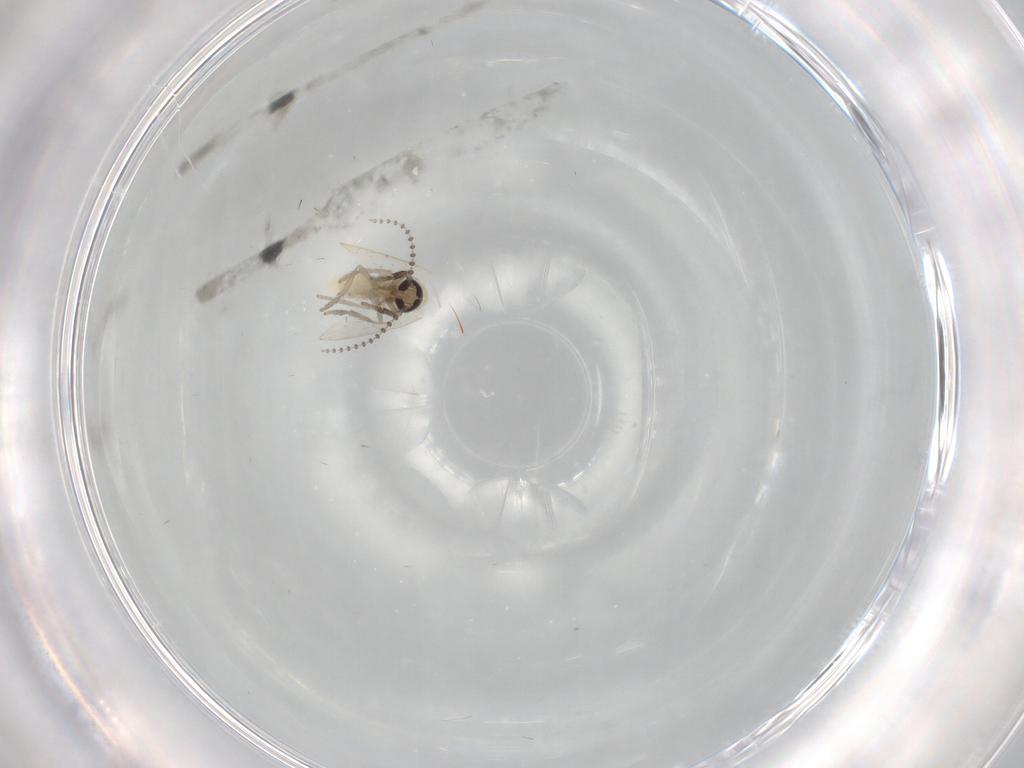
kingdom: Animalia
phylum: Arthropoda
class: Insecta
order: Diptera
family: Psychodidae
